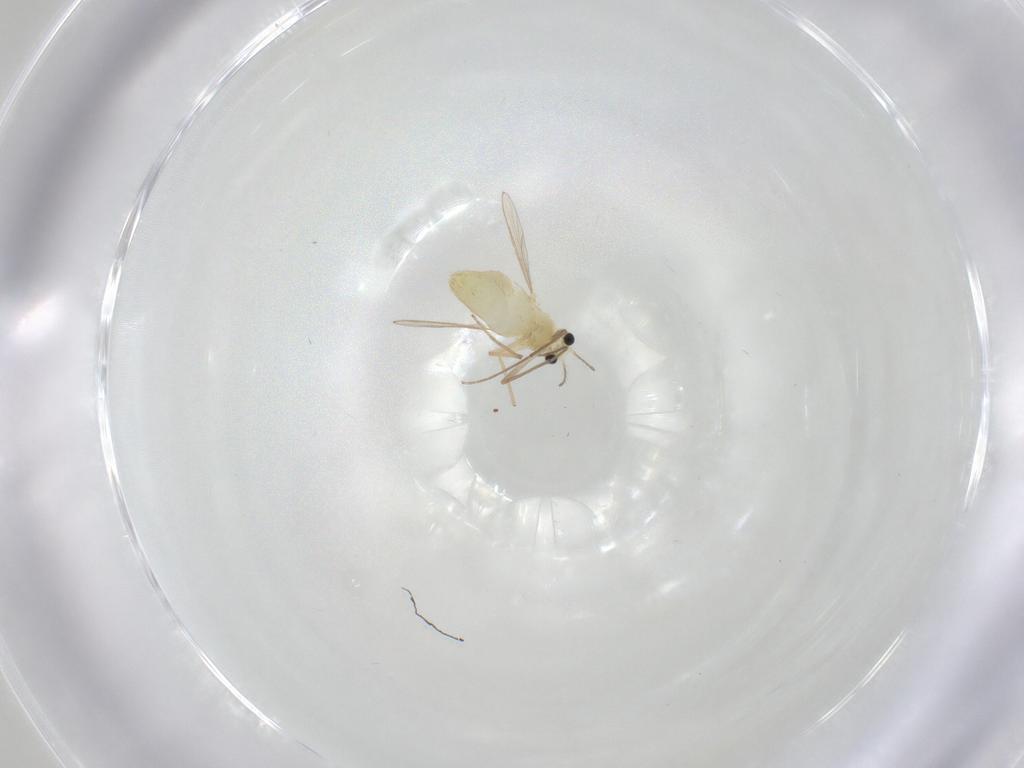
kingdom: Animalia
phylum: Arthropoda
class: Insecta
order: Diptera
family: Chironomidae
